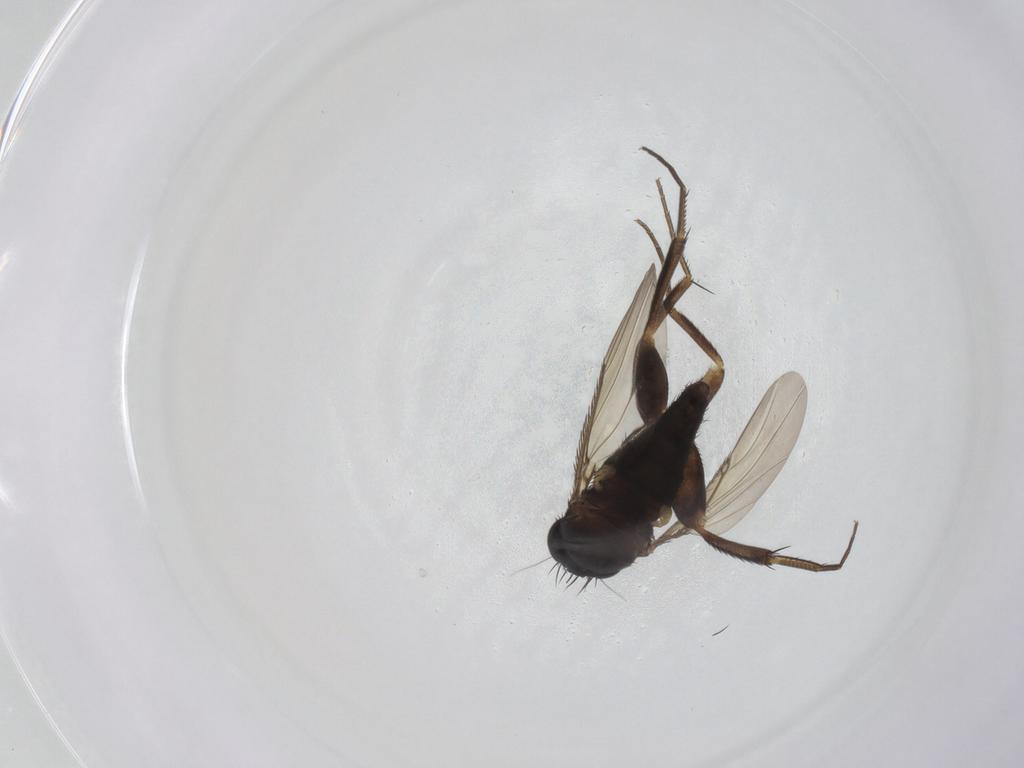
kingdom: Animalia
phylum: Arthropoda
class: Insecta
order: Diptera
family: Phoridae
